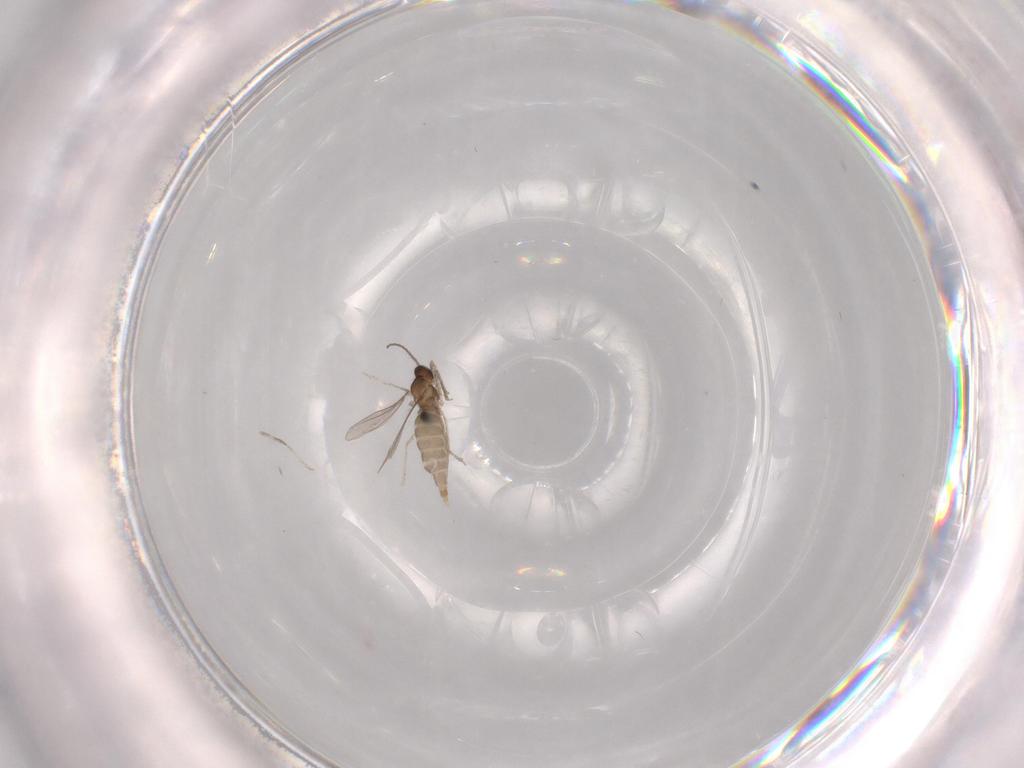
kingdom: Animalia
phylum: Arthropoda
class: Insecta
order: Diptera
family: Cecidomyiidae
